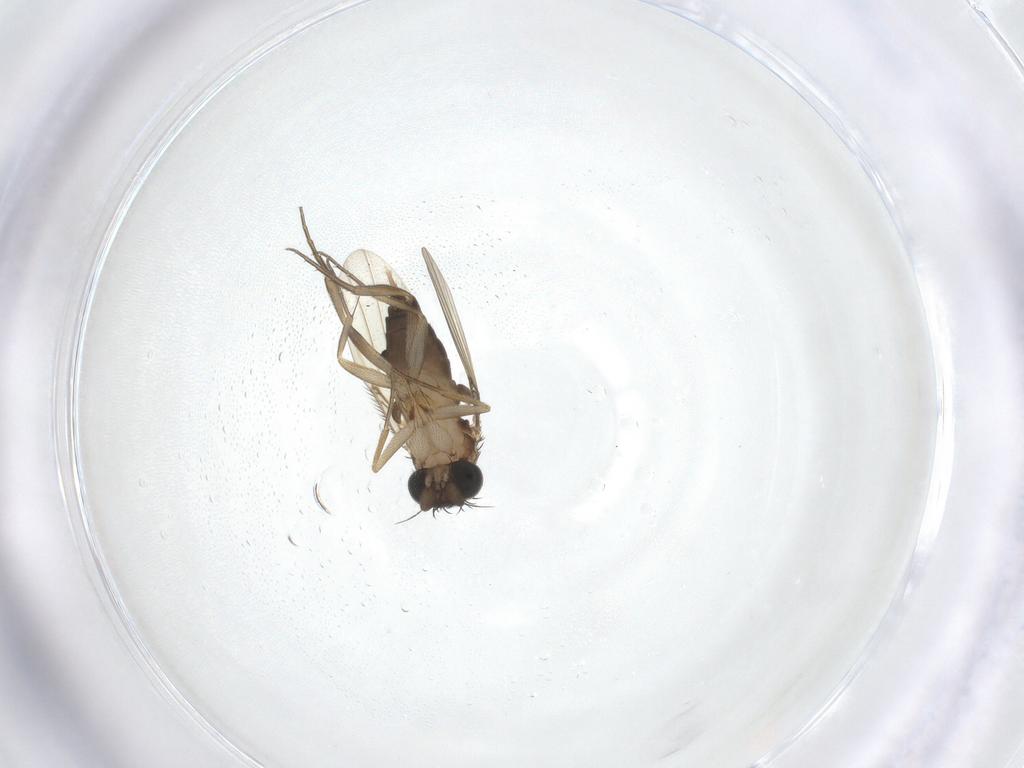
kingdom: Animalia
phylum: Arthropoda
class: Insecta
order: Diptera
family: Phoridae
